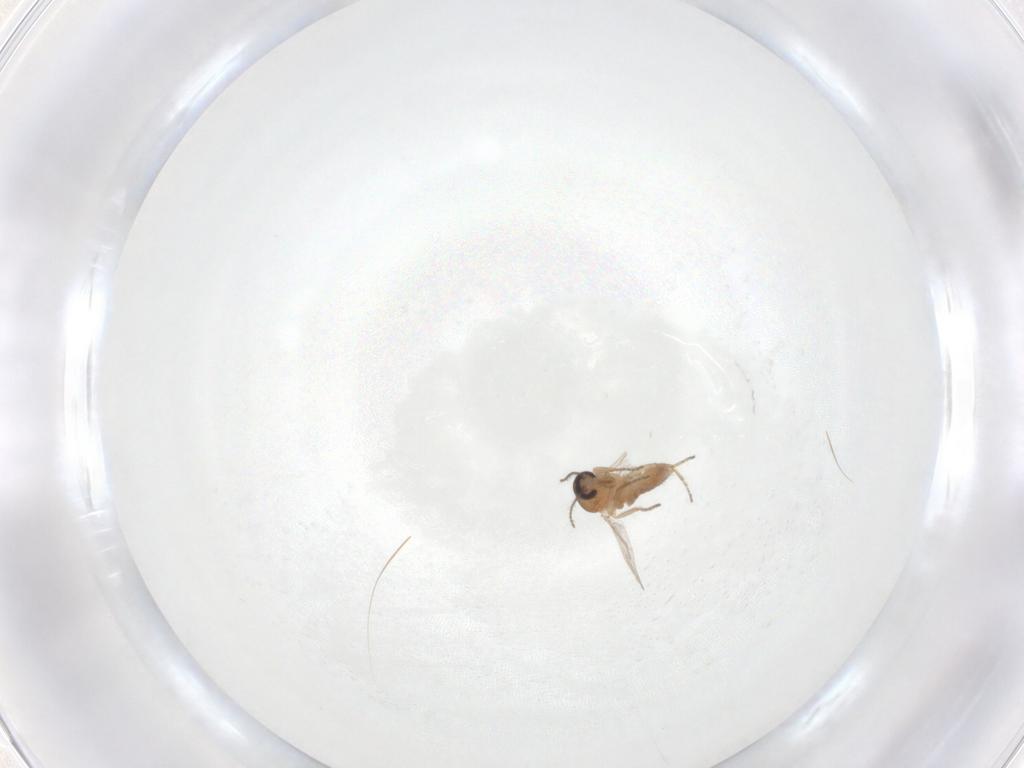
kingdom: Animalia
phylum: Arthropoda
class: Insecta
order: Diptera
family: Ceratopogonidae
